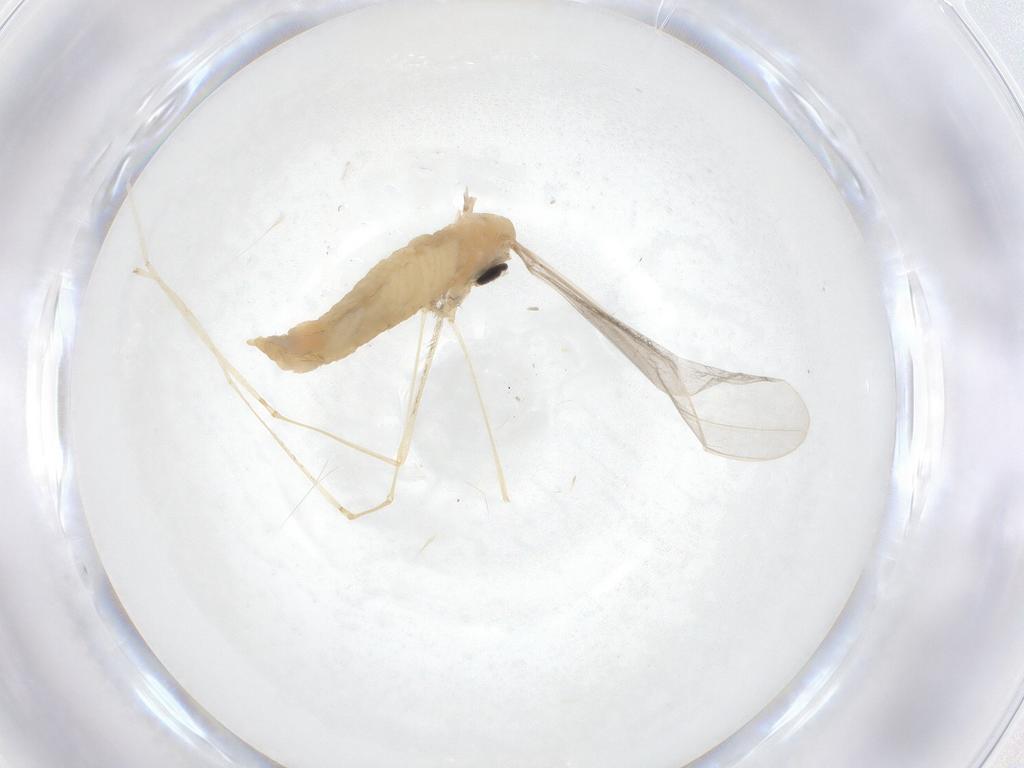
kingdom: Animalia
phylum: Arthropoda
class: Insecta
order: Diptera
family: Cecidomyiidae
